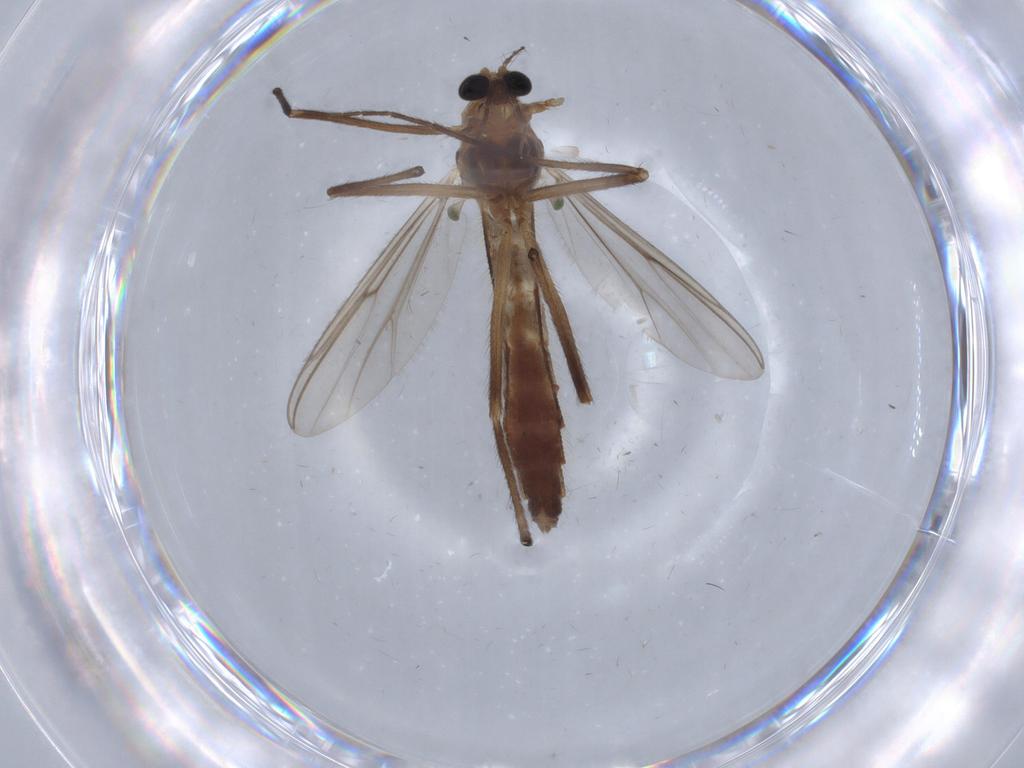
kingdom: Animalia
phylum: Arthropoda
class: Insecta
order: Diptera
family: Chironomidae
